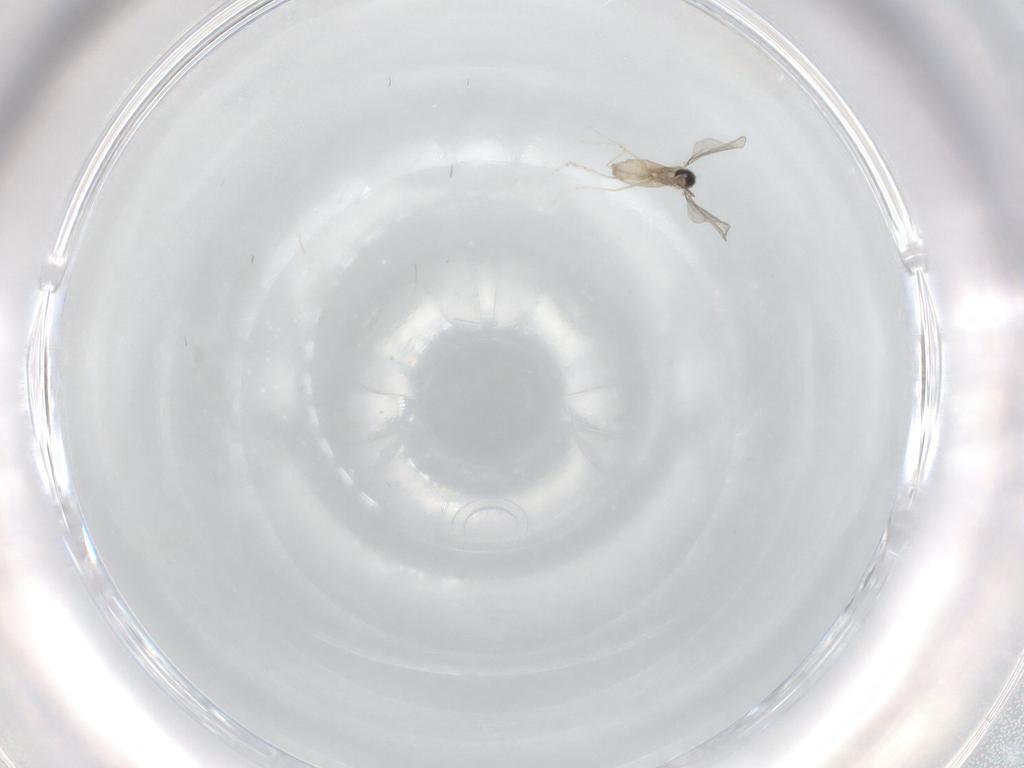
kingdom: Animalia
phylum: Arthropoda
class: Insecta
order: Diptera
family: Cecidomyiidae
